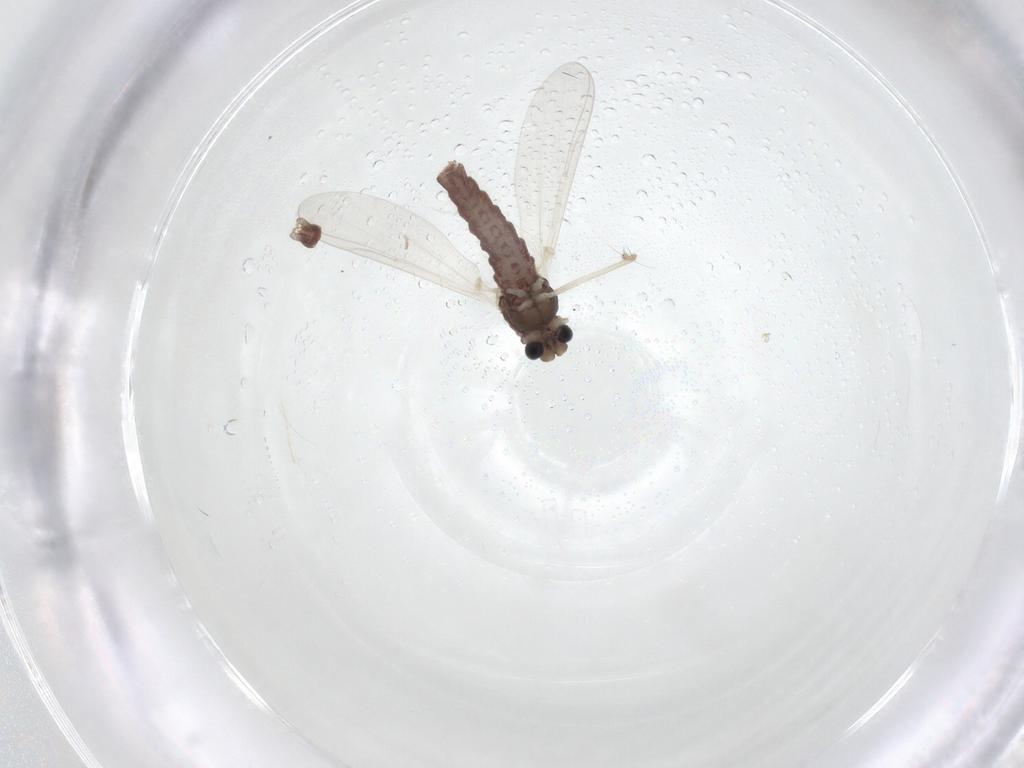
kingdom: Animalia
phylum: Arthropoda
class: Insecta
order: Diptera
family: Chironomidae
